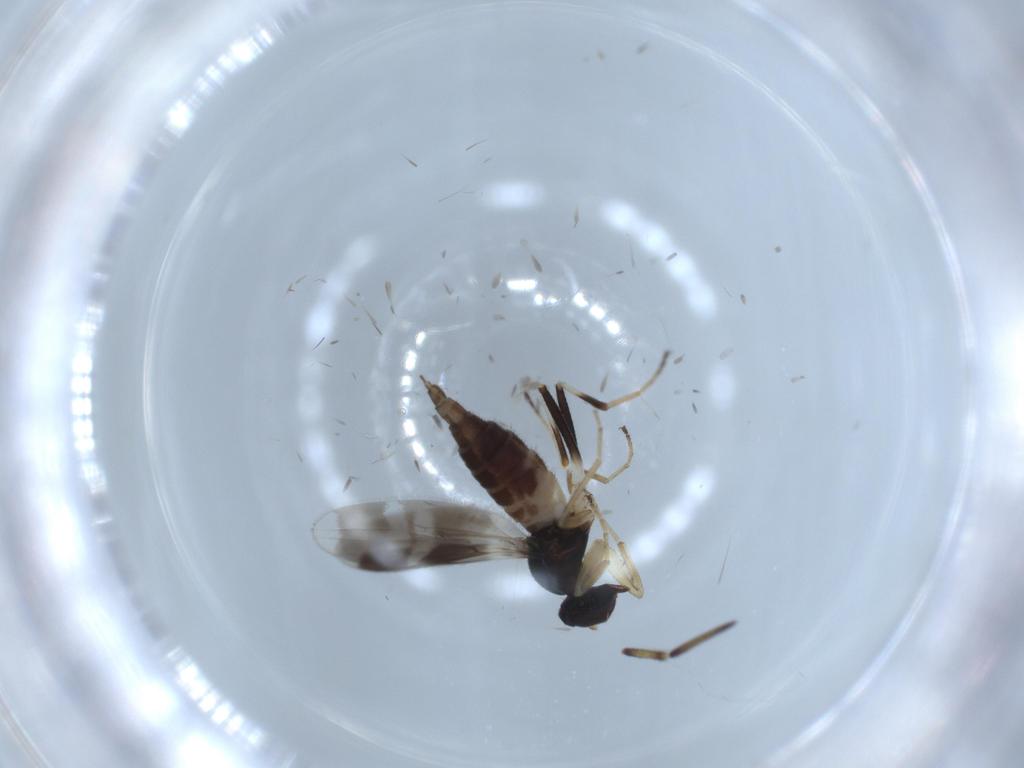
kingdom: Animalia
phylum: Arthropoda
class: Insecta
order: Diptera
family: Hybotidae
